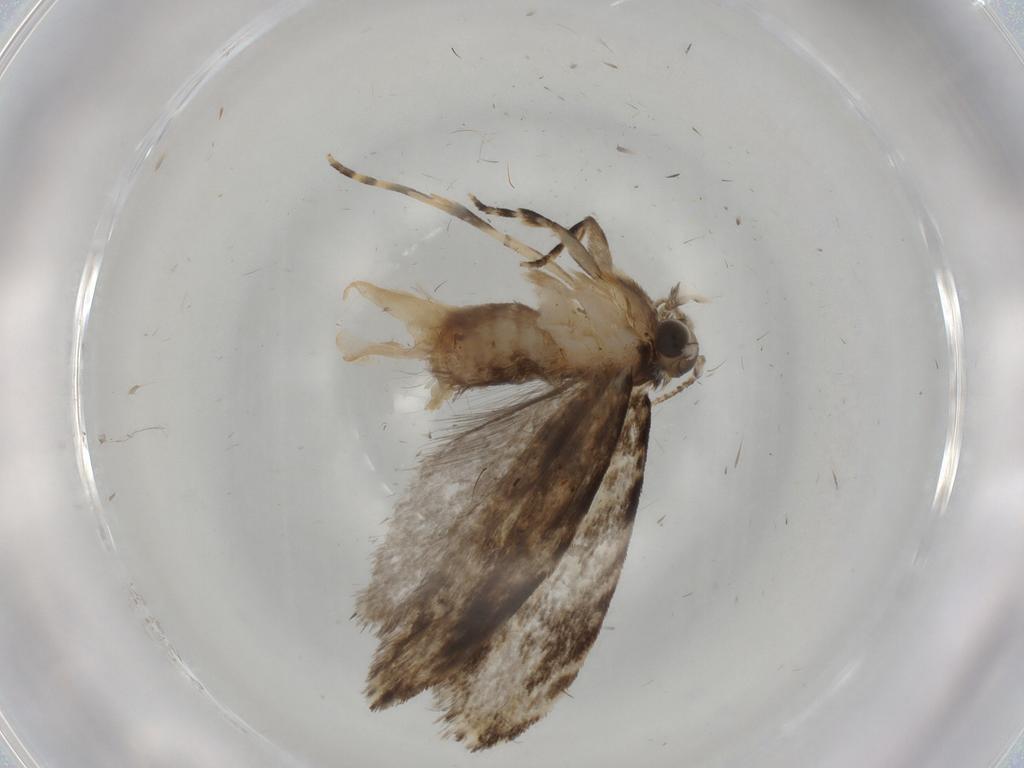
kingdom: Animalia
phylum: Arthropoda
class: Insecta
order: Lepidoptera
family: Tineidae
